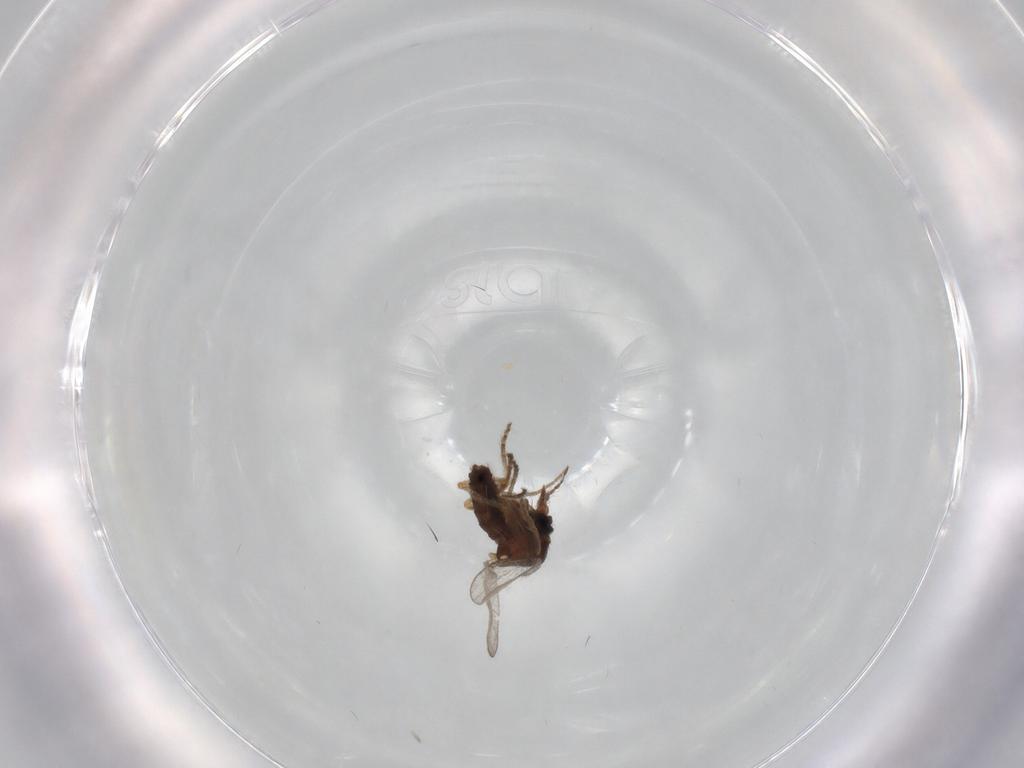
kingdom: Animalia
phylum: Arthropoda
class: Insecta
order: Diptera
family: Ceratopogonidae
